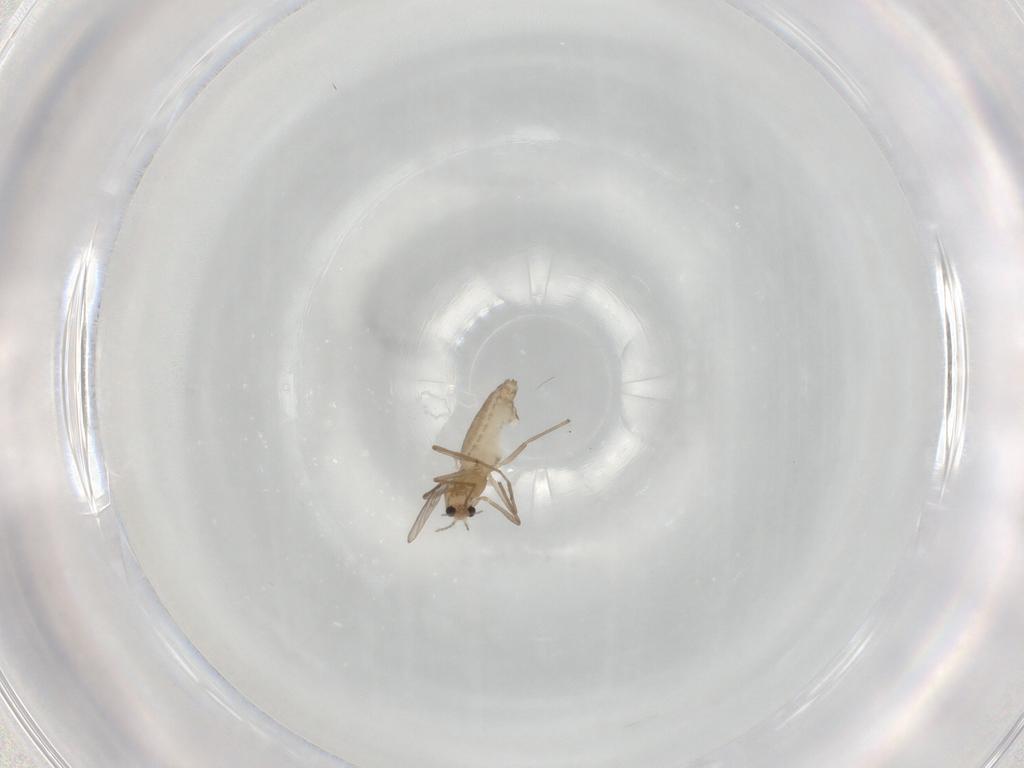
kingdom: Animalia
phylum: Arthropoda
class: Insecta
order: Diptera
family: Chironomidae
